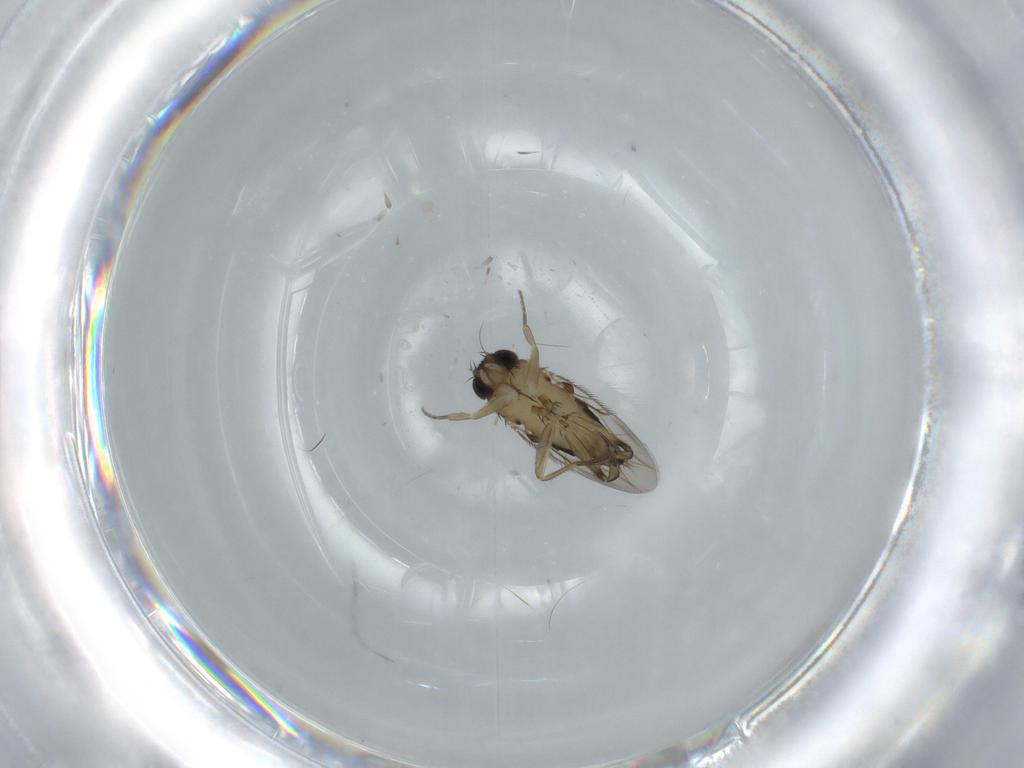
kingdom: Animalia
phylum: Arthropoda
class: Insecta
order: Diptera
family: Phoridae
